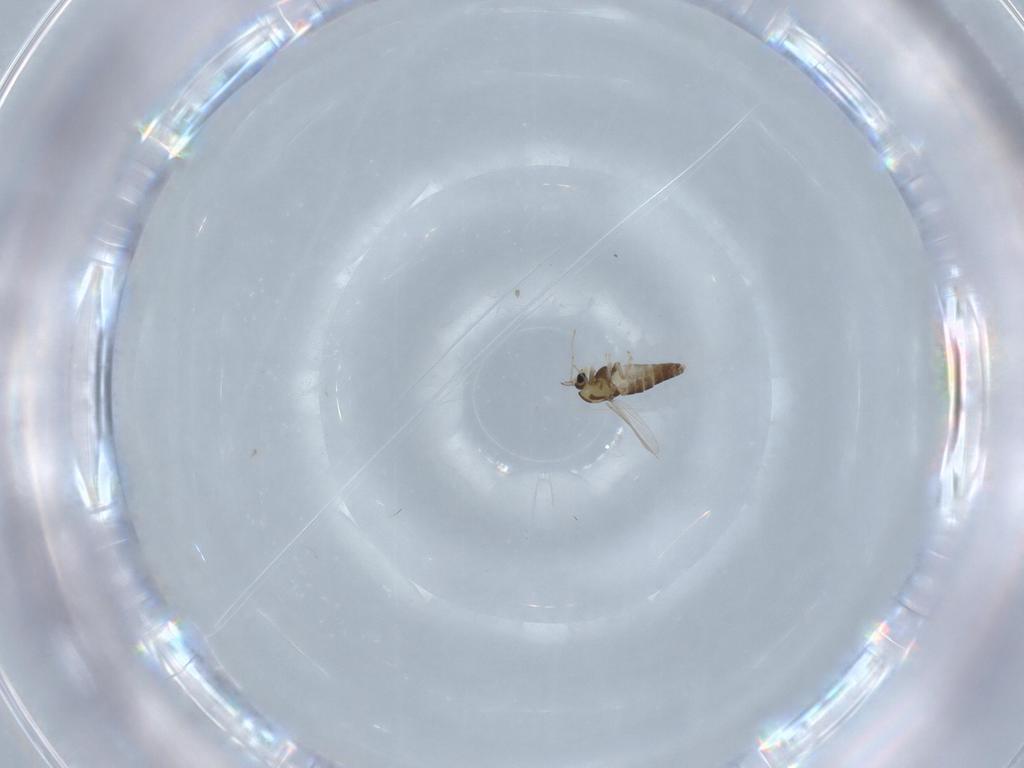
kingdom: Animalia
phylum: Arthropoda
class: Insecta
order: Diptera
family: Chironomidae
